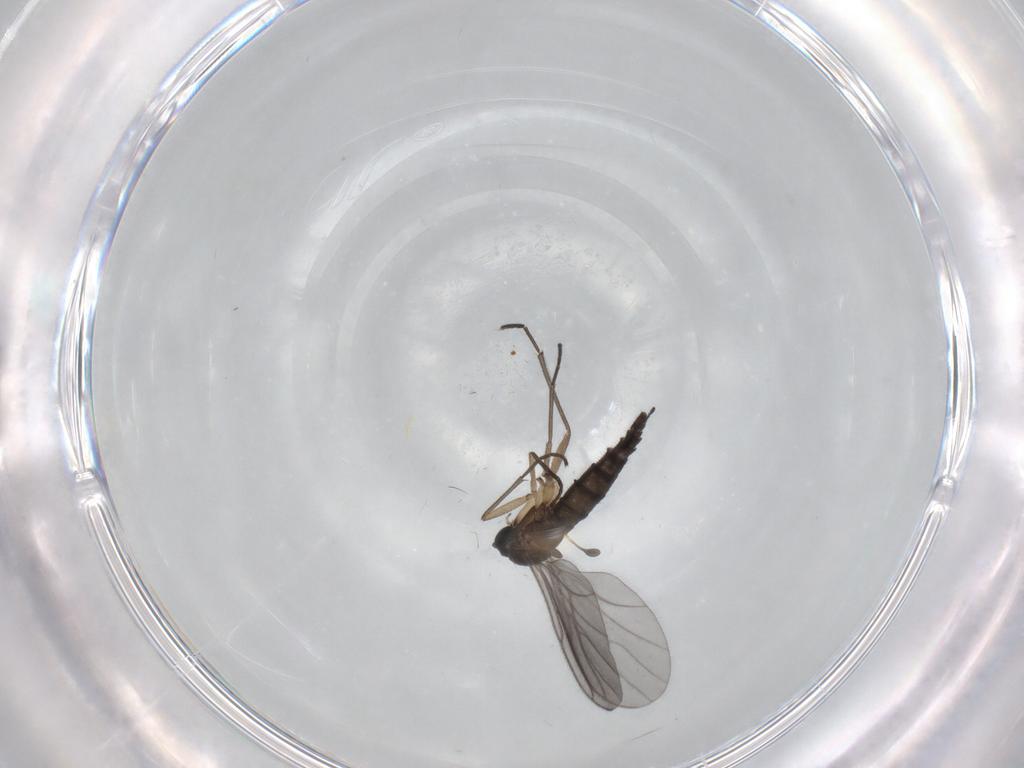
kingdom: Animalia
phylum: Arthropoda
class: Insecta
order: Diptera
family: Sciaridae
